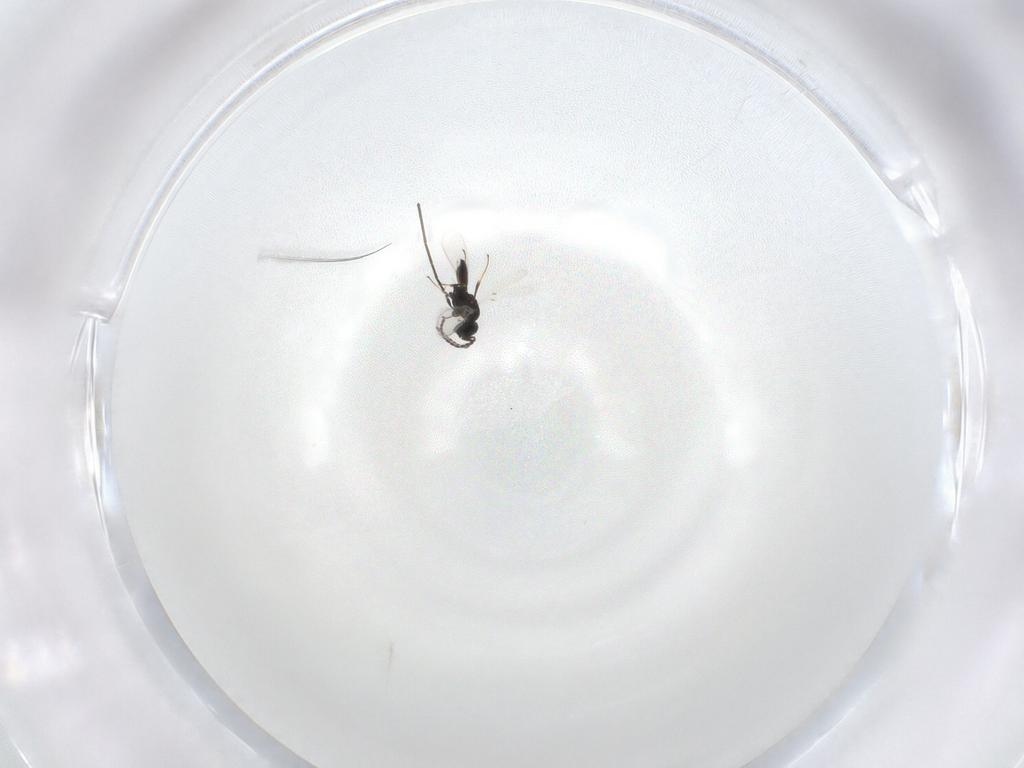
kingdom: Animalia
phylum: Arthropoda
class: Insecta
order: Hymenoptera
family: Scelionidae
